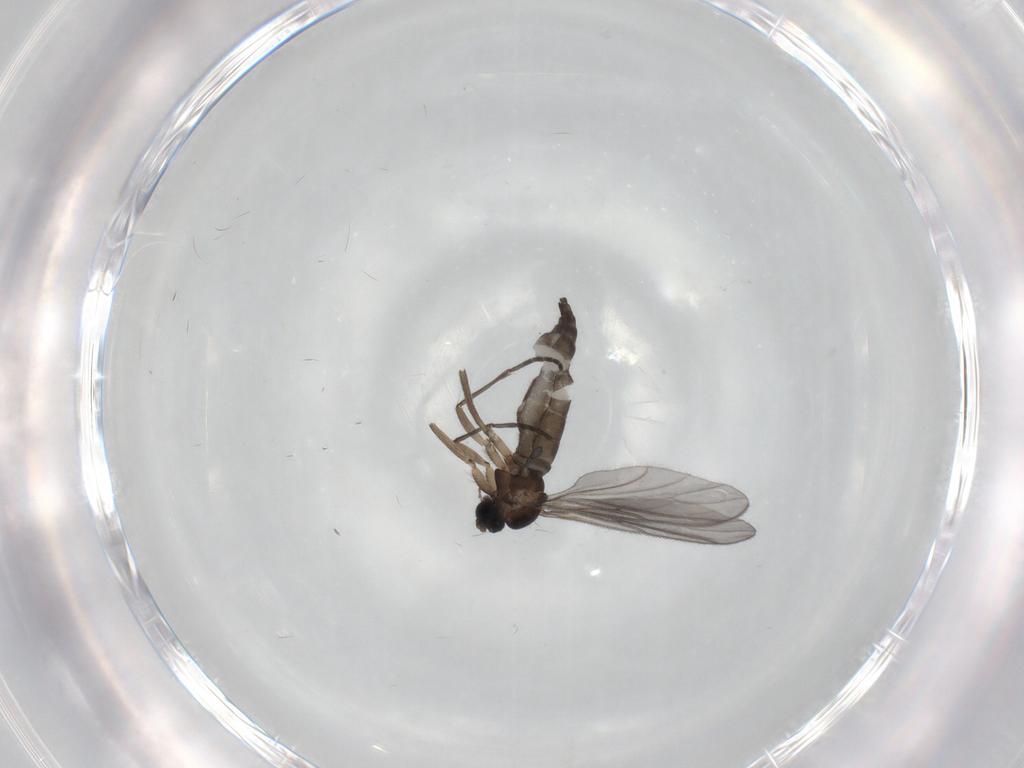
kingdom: Animalia
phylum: Arthropoda
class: Insecta
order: Diptera
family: Sciaridae
